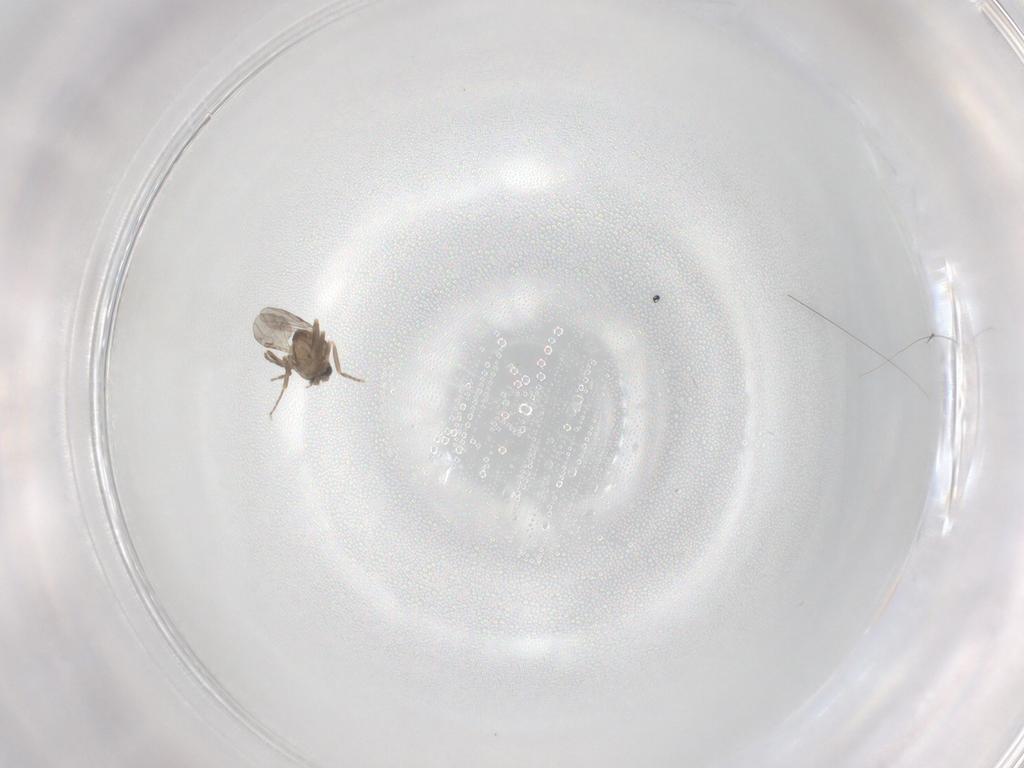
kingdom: Animalia
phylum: Arthropoda
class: Insecta
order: Diptera
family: Ceratopogonidae
